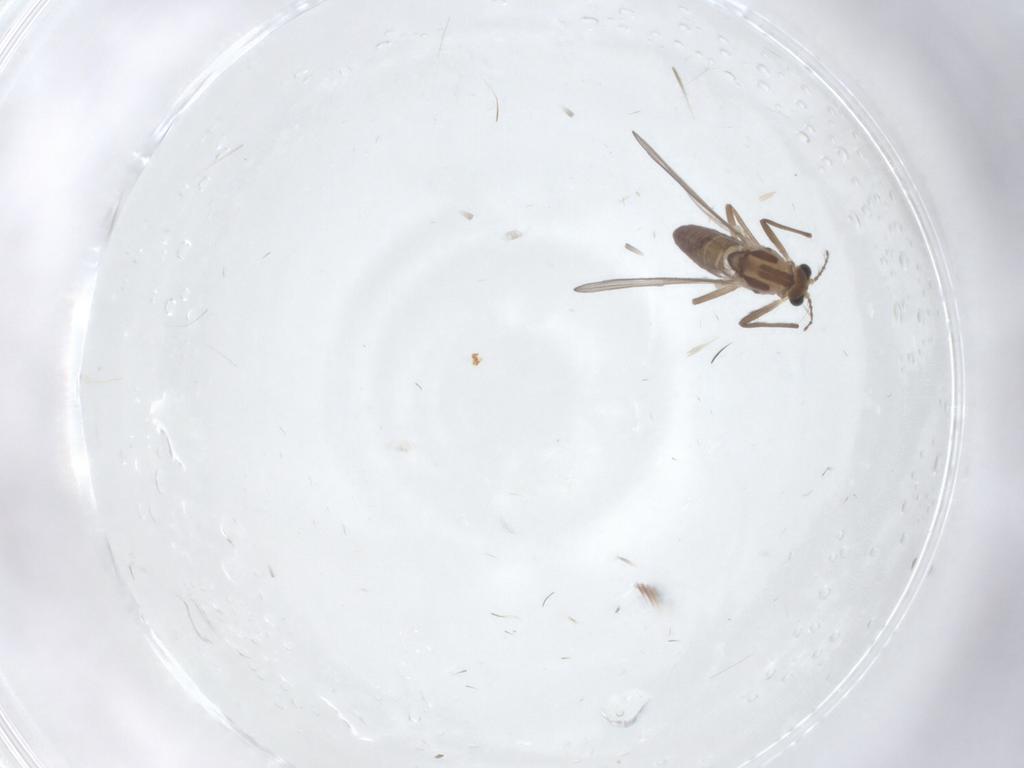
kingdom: Animalia
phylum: Arthropoda
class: Insecta
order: Diptera
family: Chironomidae
